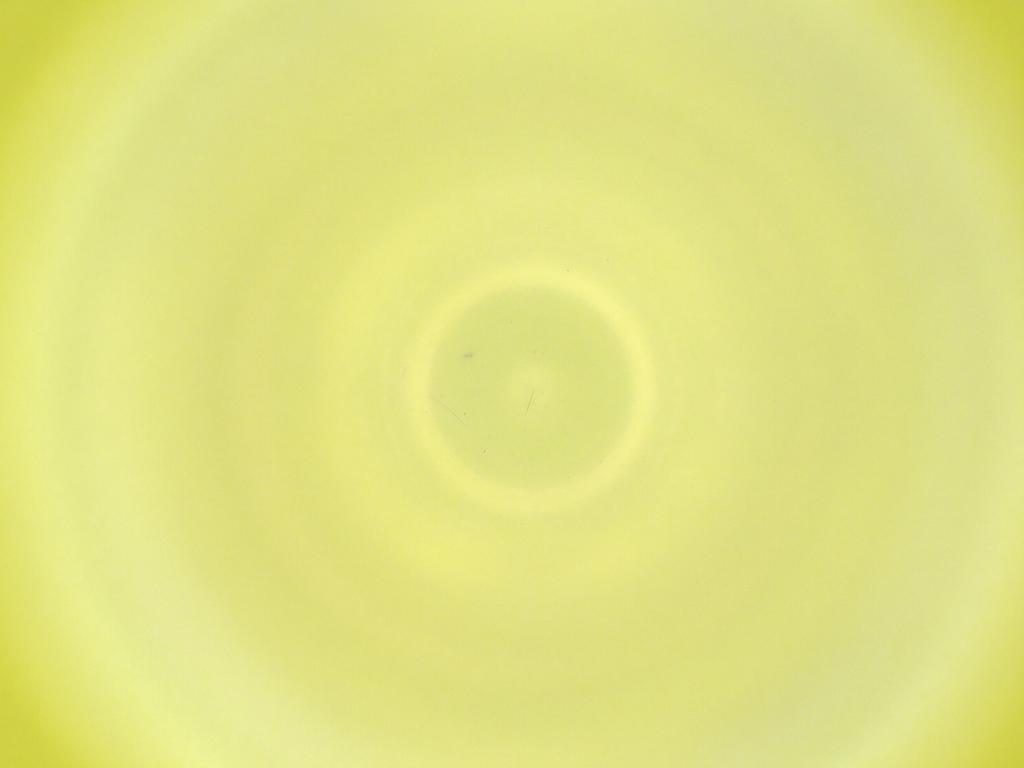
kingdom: Animalia
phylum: Arthropoda
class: Insecta
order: Diptera
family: Cecidomyiidae
